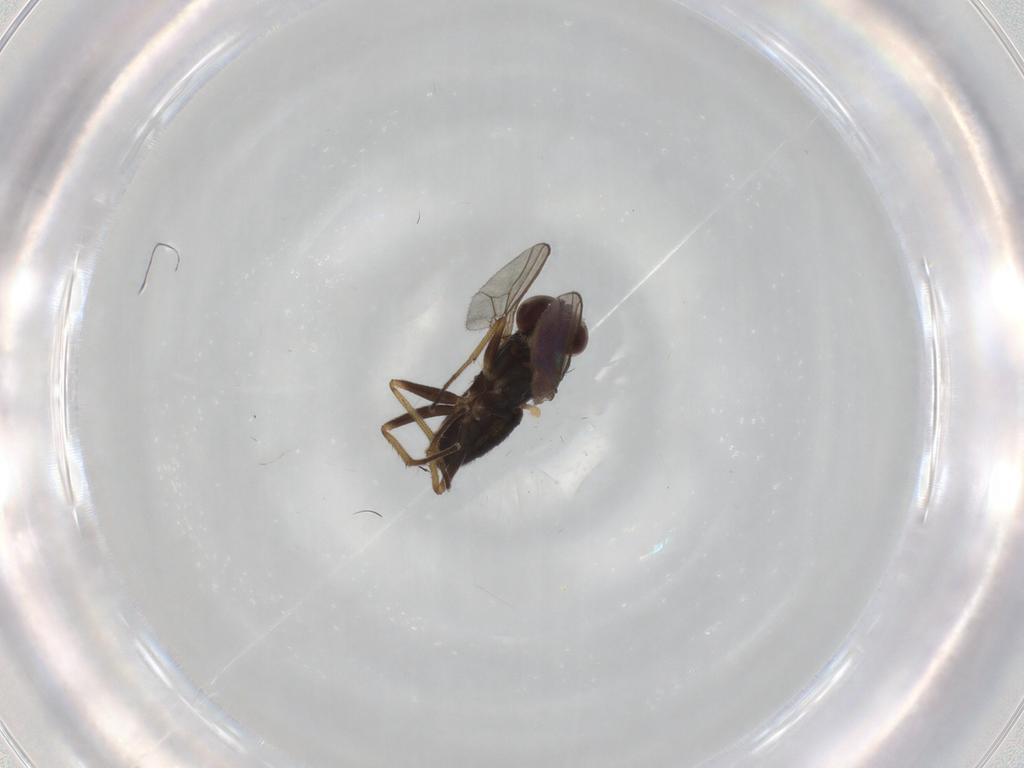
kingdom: Animalia
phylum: Arthropoda
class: Insecta
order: Diptera
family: Dolichopodidae
